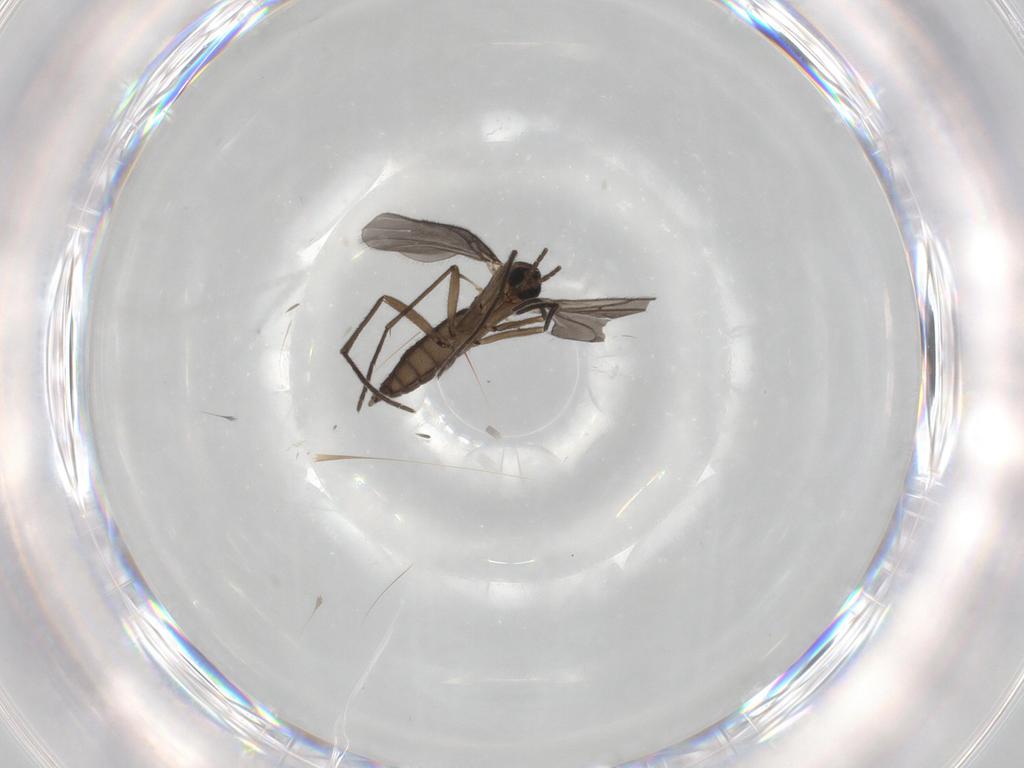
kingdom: Animalia
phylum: Arthropoda
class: Insecta
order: Diptera
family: Sciaridae
